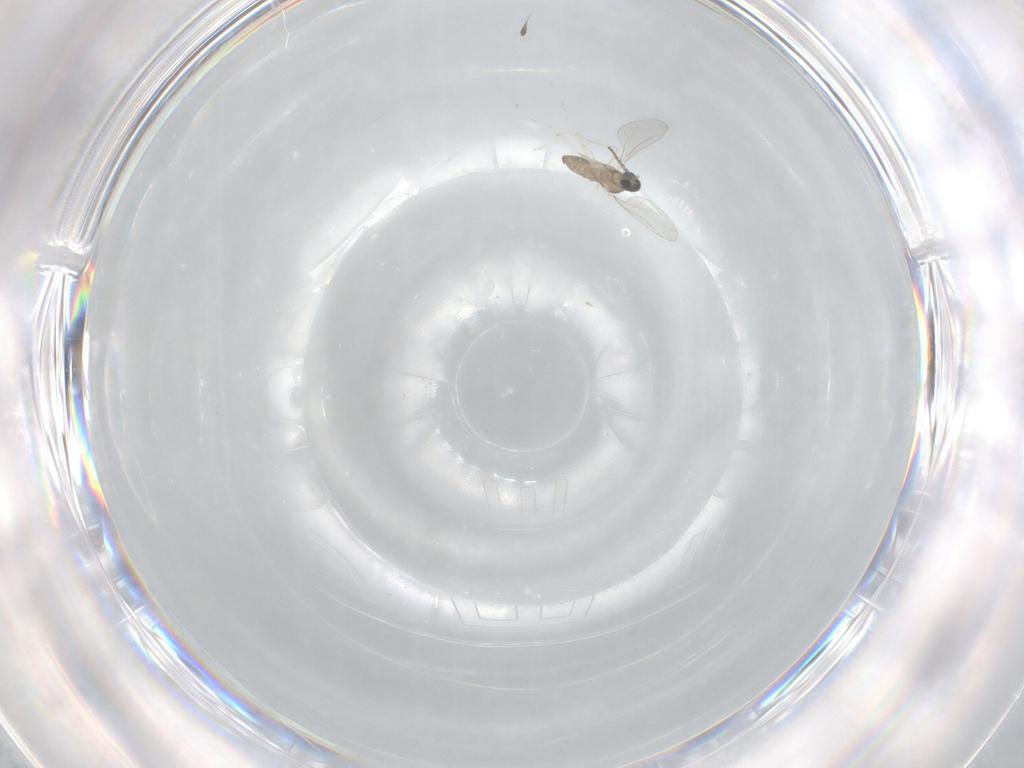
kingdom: Animalia
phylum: Arthropoda
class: Insecta
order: Diptera
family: Cecidomyiidae
